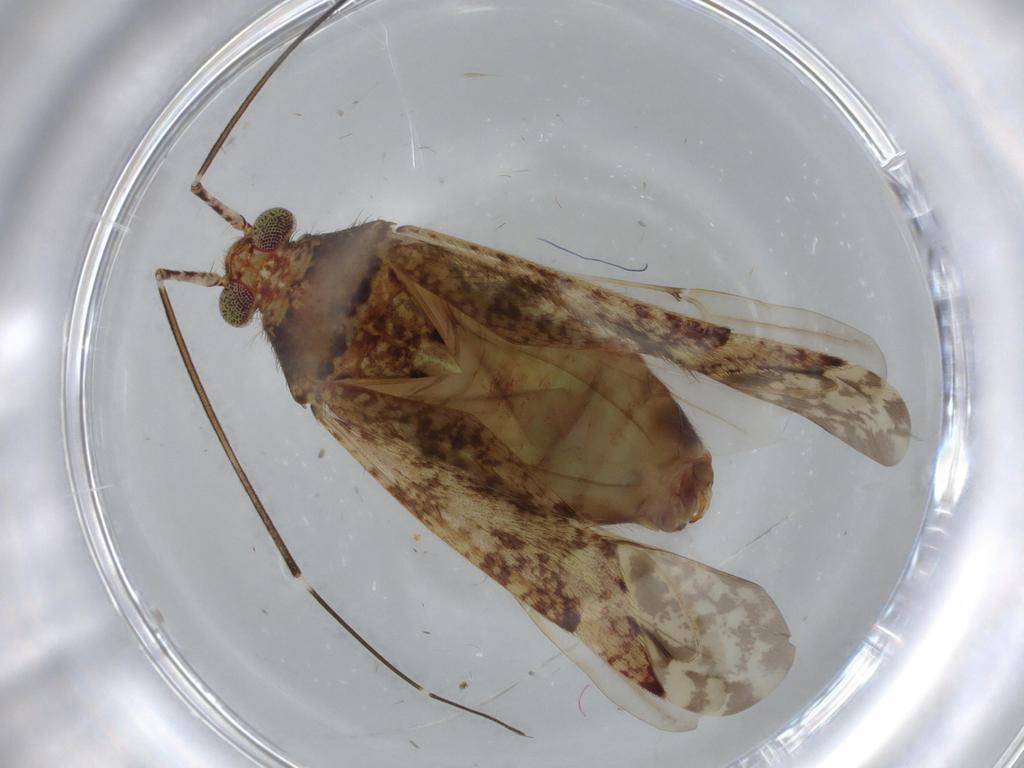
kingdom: Animalia
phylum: Arthropoda
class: Insecta
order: Hemiptera
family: Miridae
